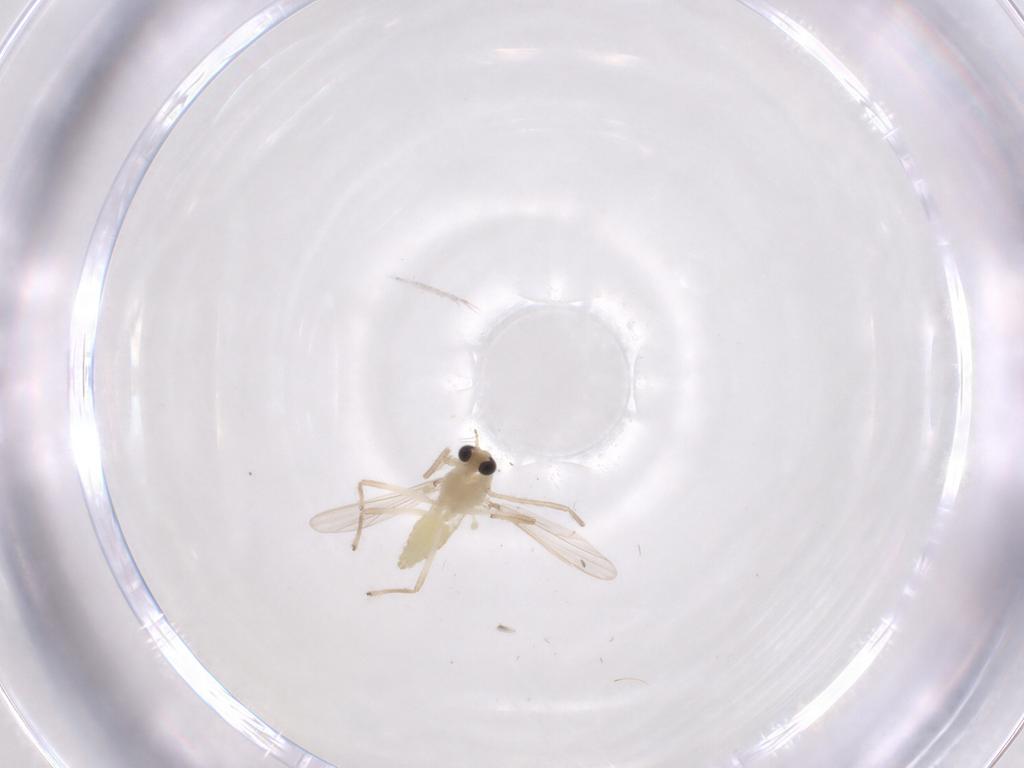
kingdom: Animalia
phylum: Arthropoda
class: Insecta
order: Diptera
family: Chironomidae
